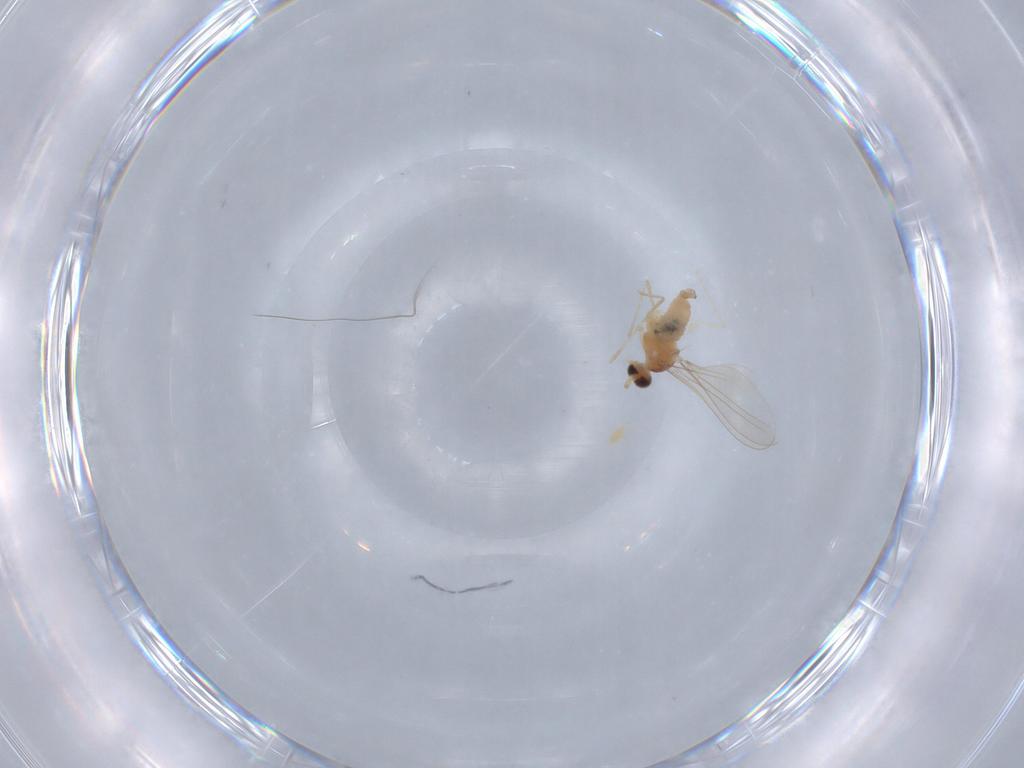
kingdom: Animalia
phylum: Arthropoda
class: Insecta
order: Diptera
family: Cecidomyiidae
